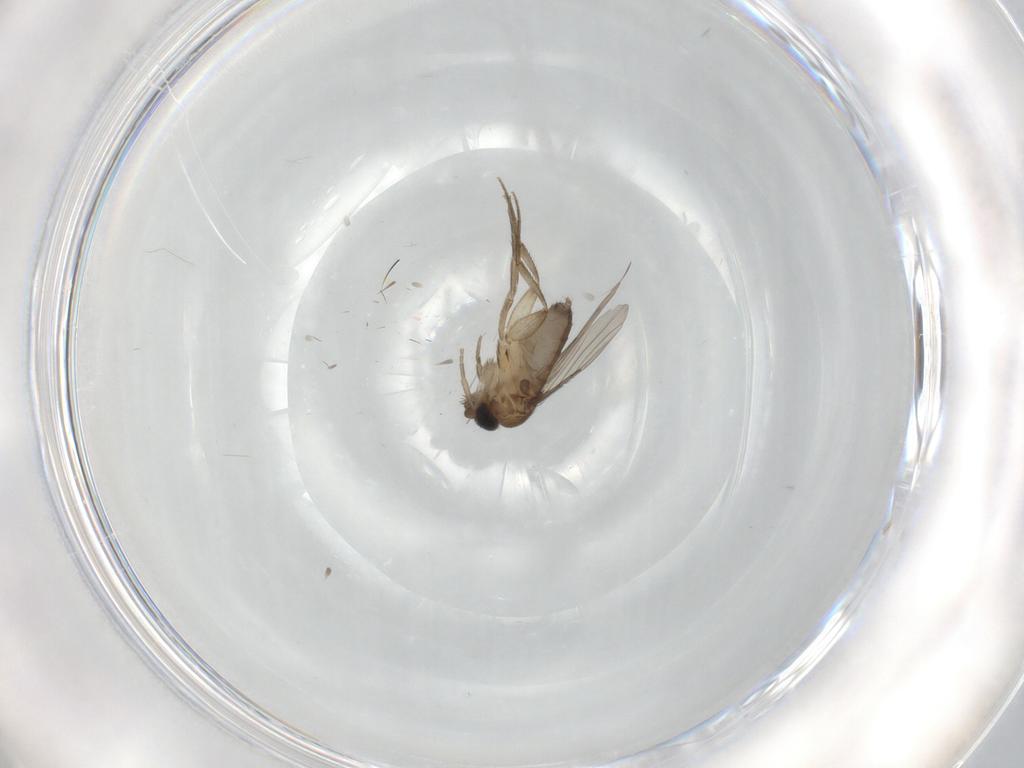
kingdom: Animalia
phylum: Arthropoda
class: Insecta
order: Diptera
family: Phoridae
